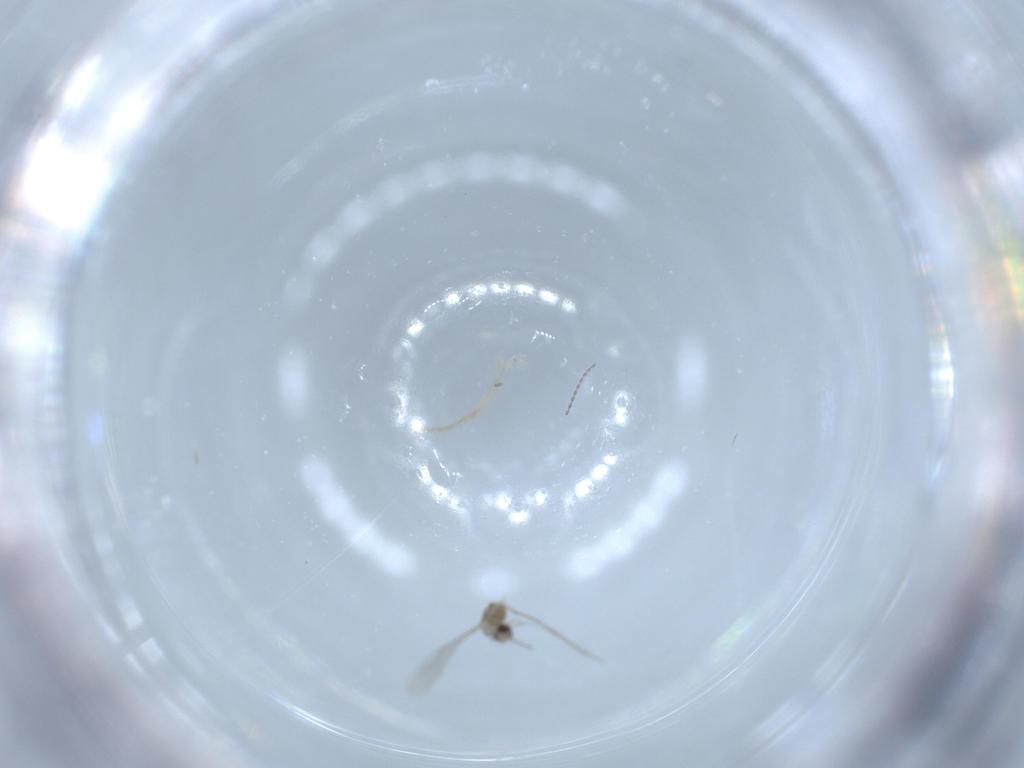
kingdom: Animalia
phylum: Arthropoda
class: Insecta
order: Diptera
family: Cecidomyiidae
